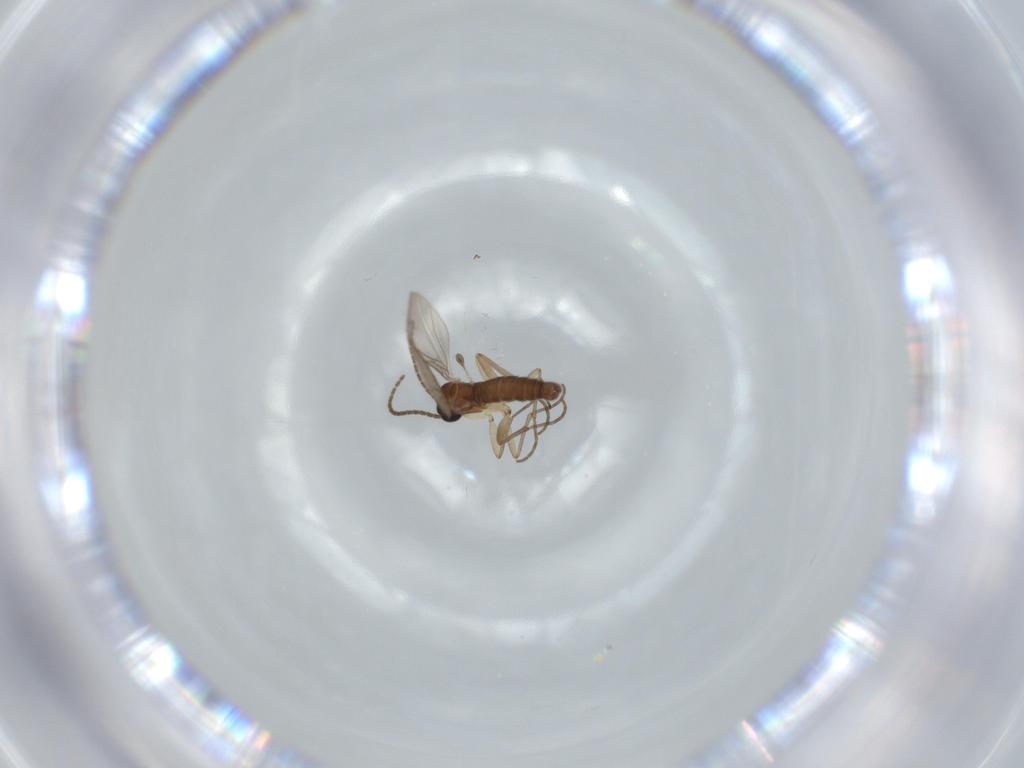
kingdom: Animalia
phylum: Arthropoda
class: Insecta
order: Diptera
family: Sciaridae
